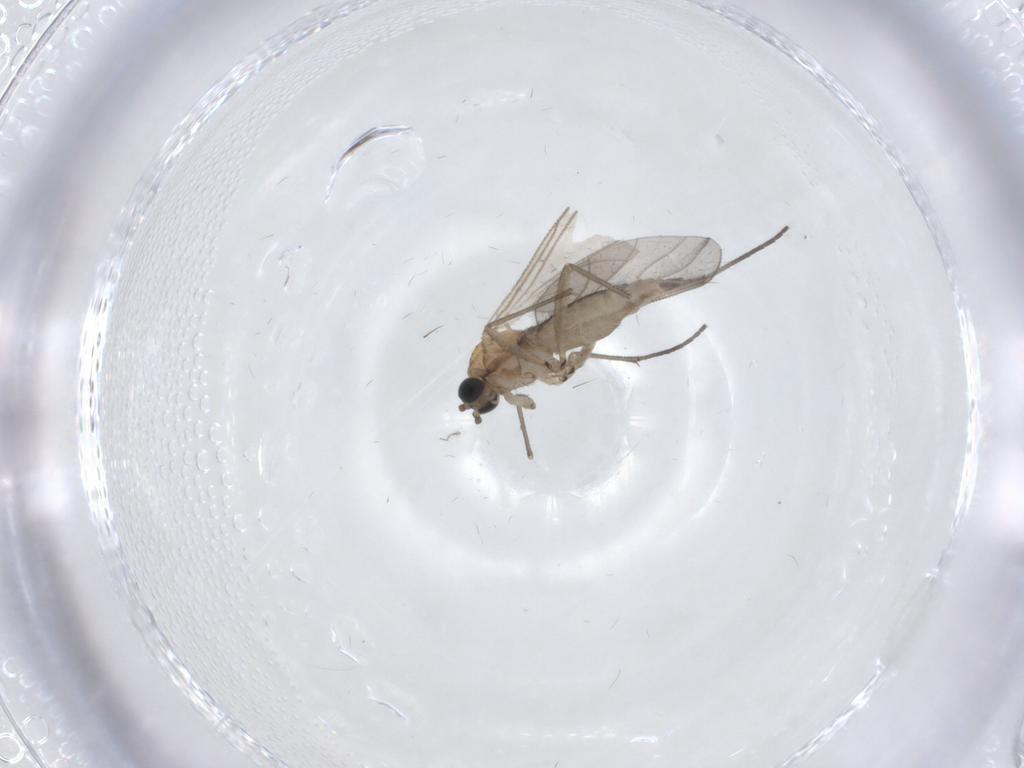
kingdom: Animalia
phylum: Arthropoda
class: Insecta
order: Diptera
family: Sciaridae
